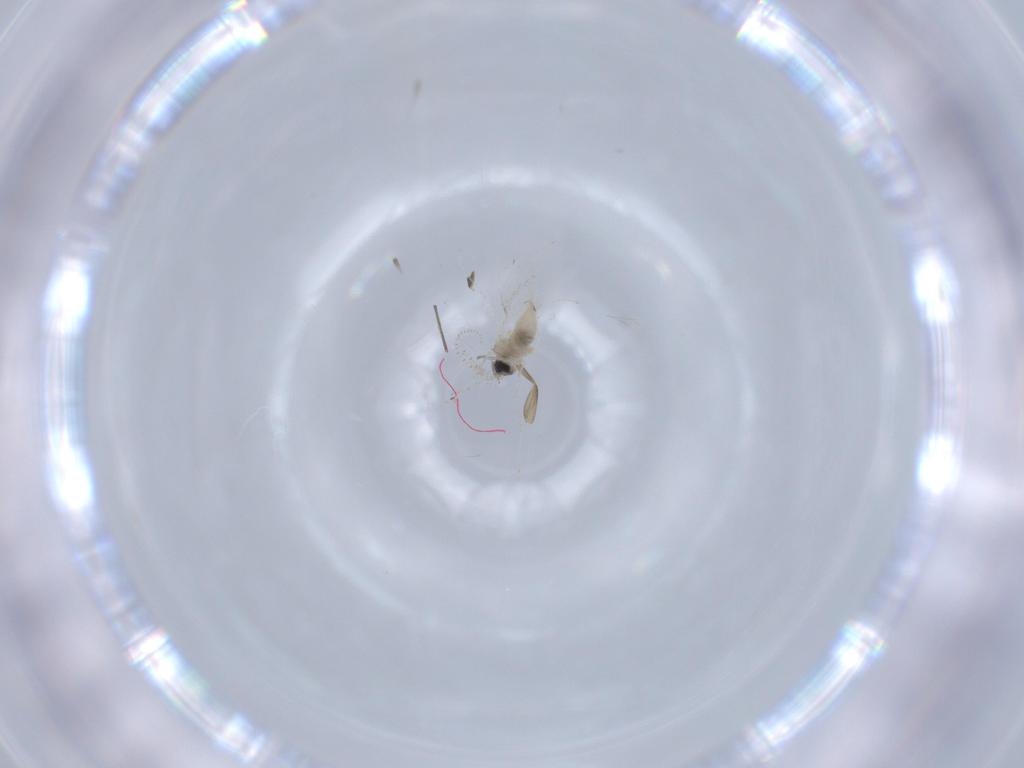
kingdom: Animalia
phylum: Arthropoda
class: Insecta
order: Diptera
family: Cecidomyiidae
